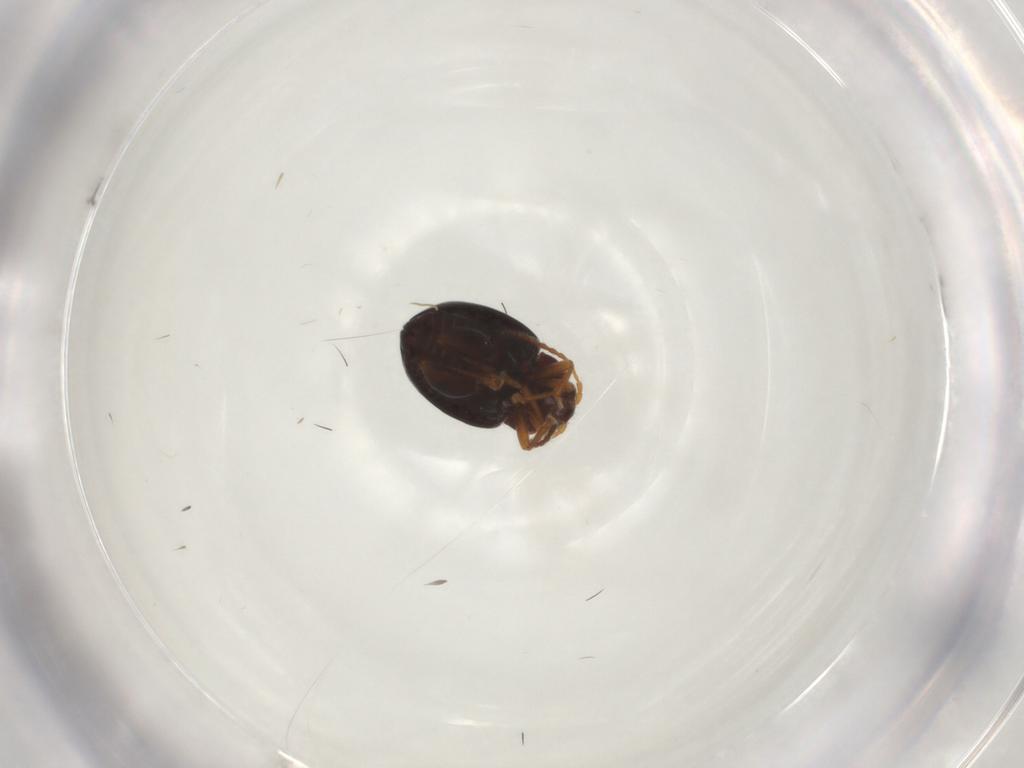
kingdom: Animalia
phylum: Arthropoda
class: Insecta
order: Coleoptera
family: Chrysomelidae
